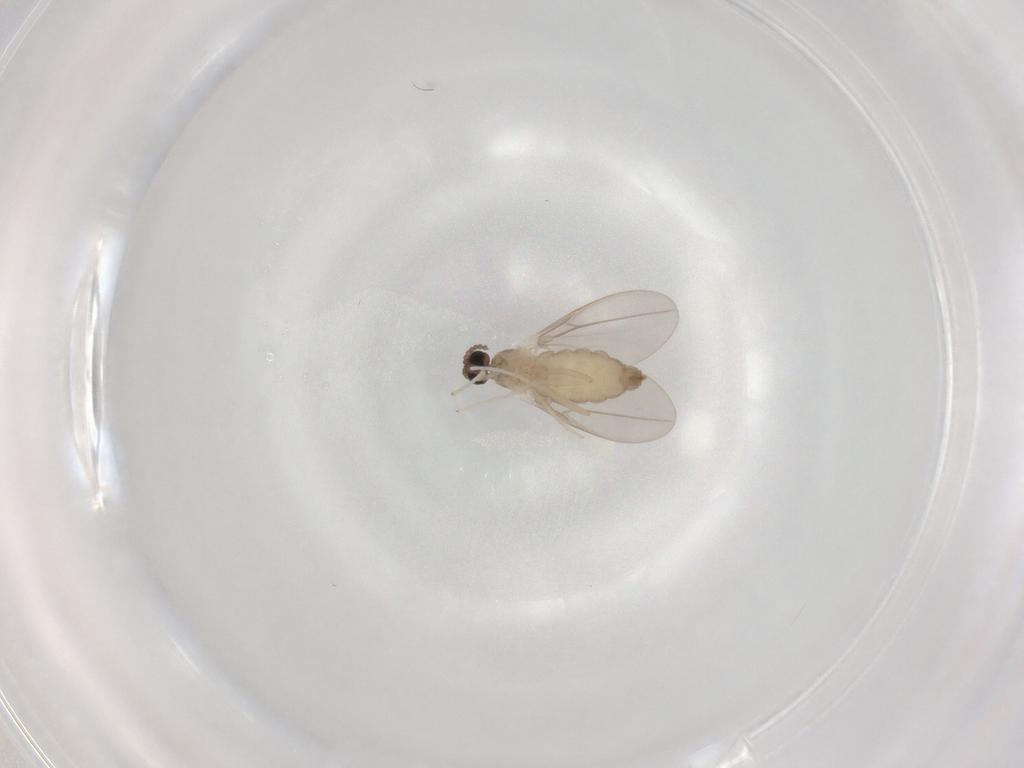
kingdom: Animalia
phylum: Arthropoda
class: Insecta
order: Diptera
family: Cecidomyiidae
